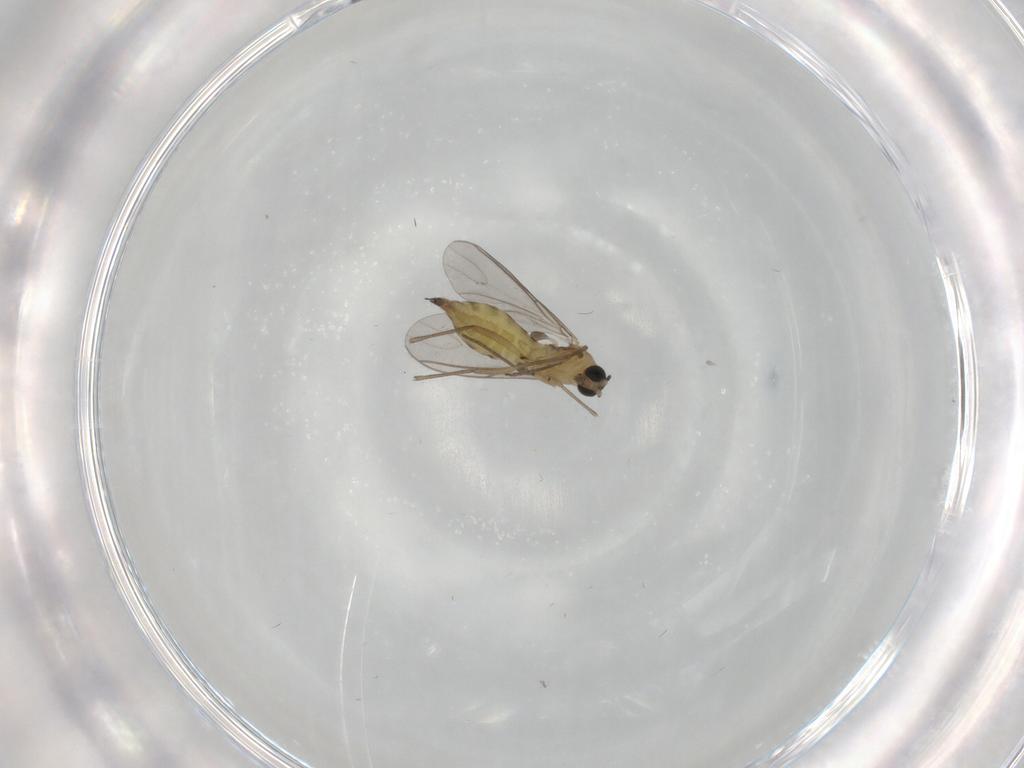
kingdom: Animalia
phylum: Arthropoda
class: Insecta
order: Diptera
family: Sciaridae
